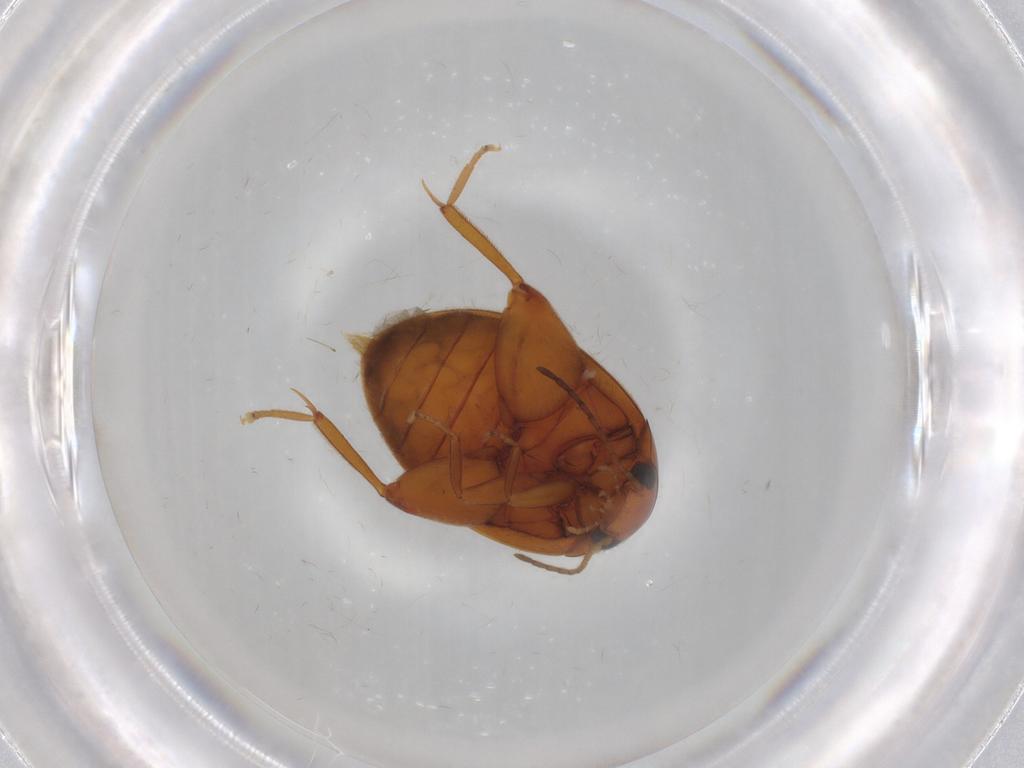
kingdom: Animalia
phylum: Arthropoda
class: Insecta
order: Coleoptera
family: Scirtidae
